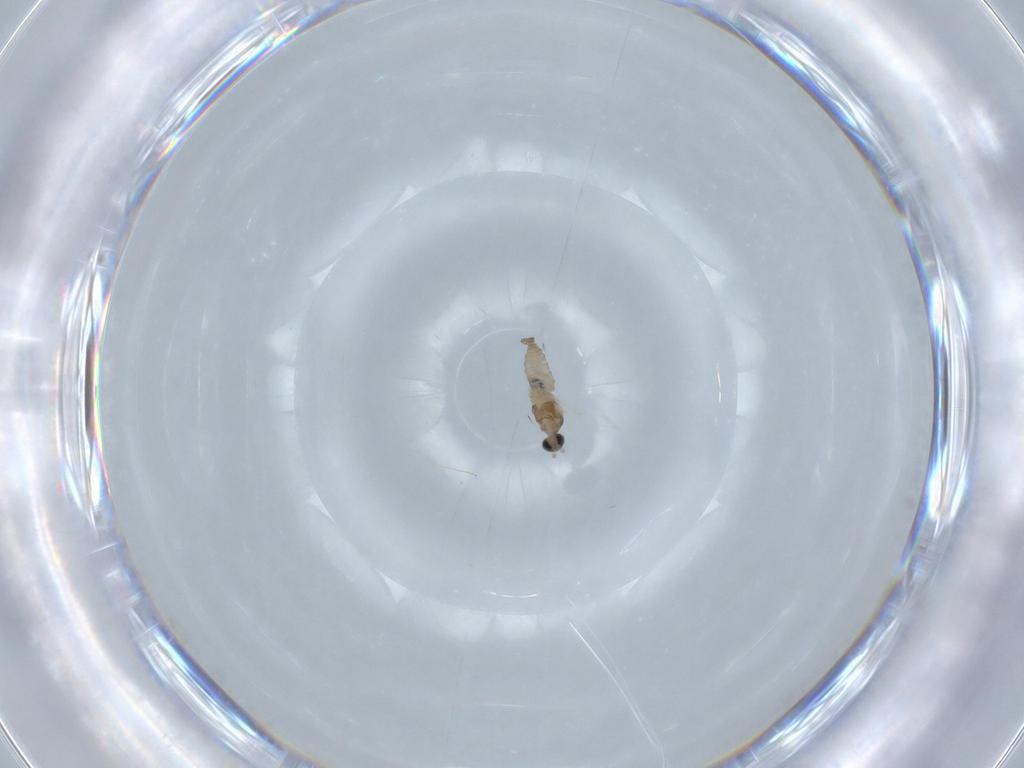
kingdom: Animalia
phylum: Arthropoda
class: Insecta
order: Diptera
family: Cecidomyiidae
